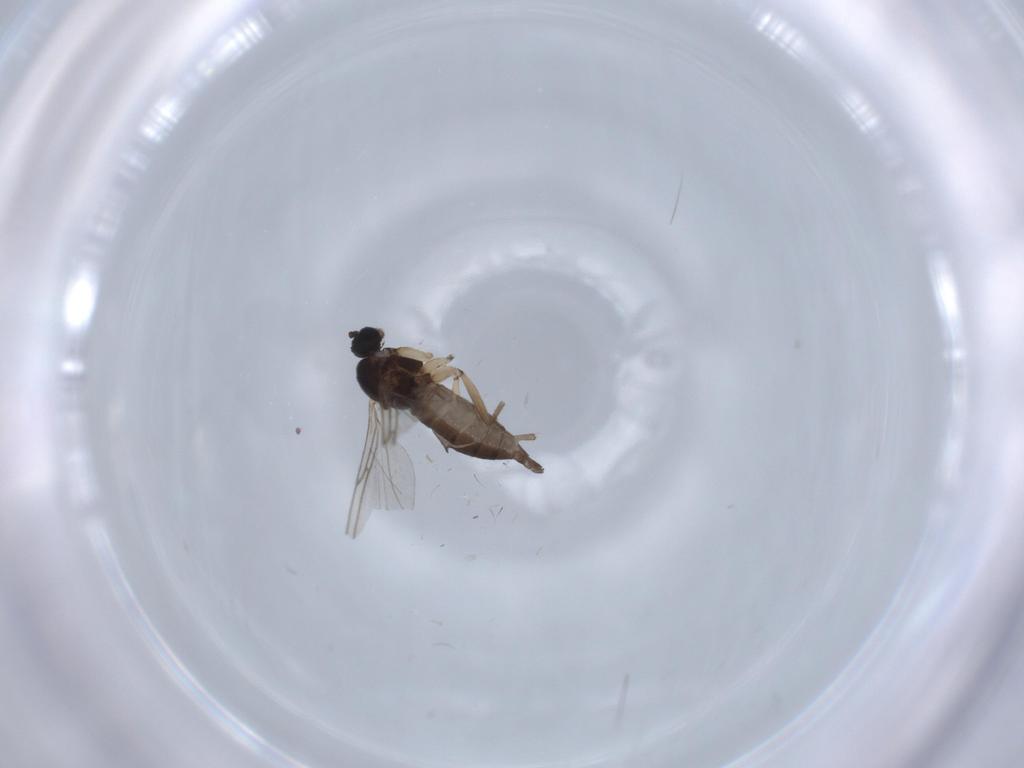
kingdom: Animalia
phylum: Arthropoda
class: Insecta
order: Diptera
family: Sciaridae
